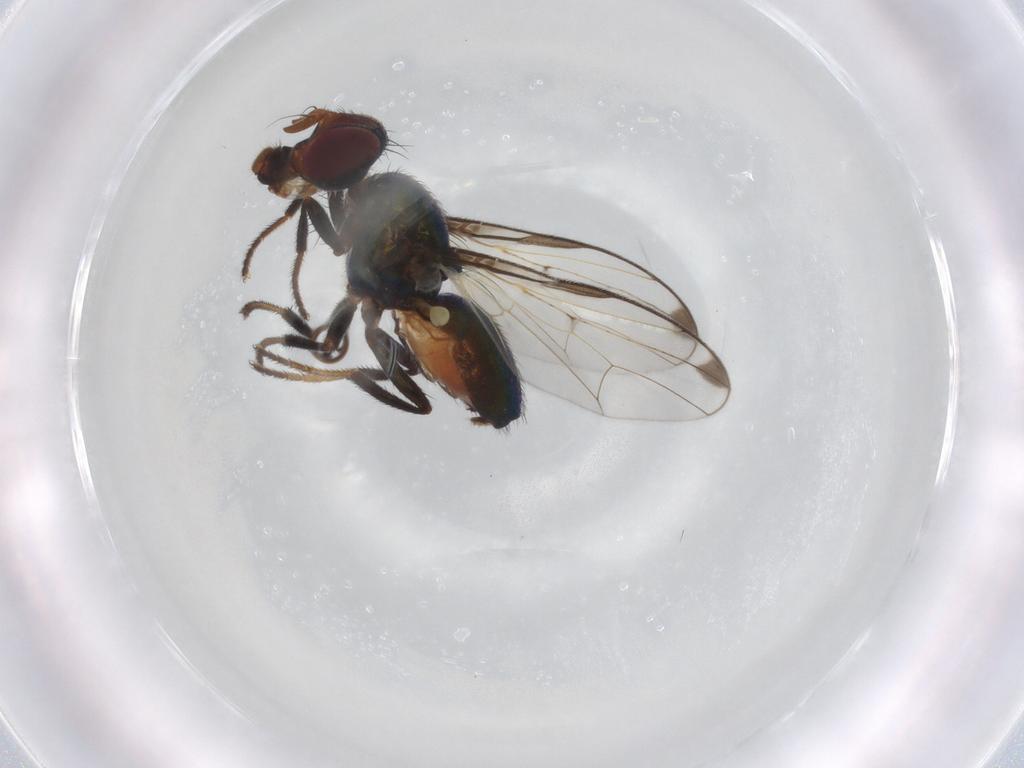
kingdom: Animalia
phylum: Arthropoda
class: Insecta
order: Diptera
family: Platystomatidae
